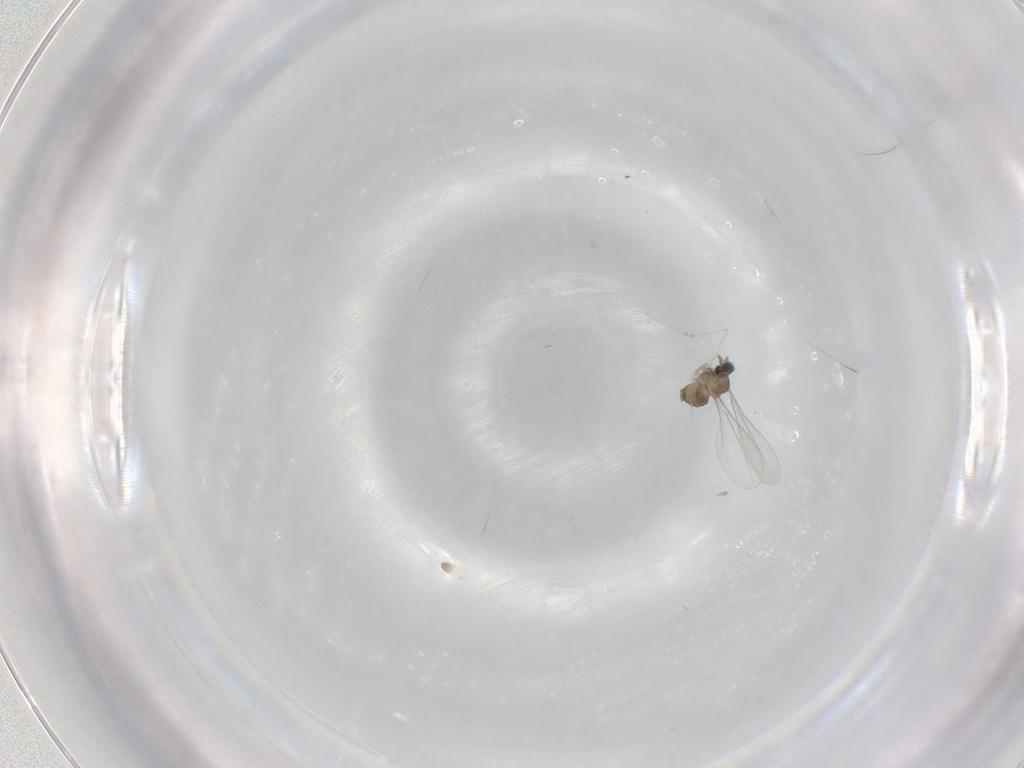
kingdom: Animalia
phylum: Arthropoda
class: Insecta
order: Diptera
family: Cecidomyiidae
